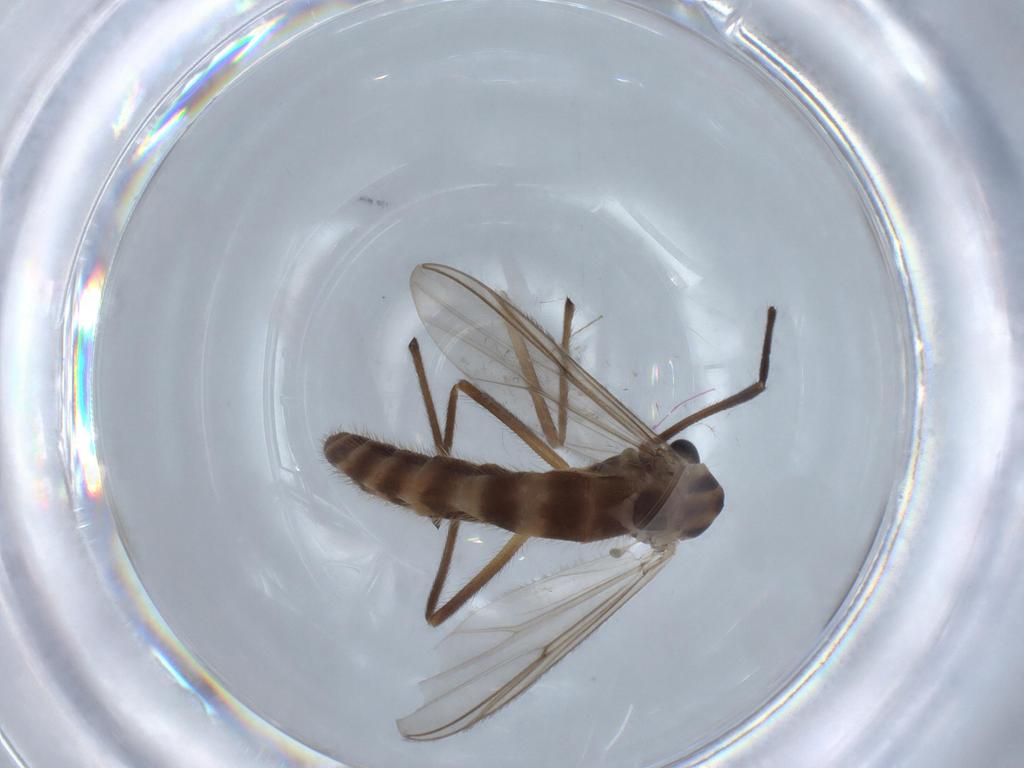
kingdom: Animalia
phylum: Arthropoda
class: Insecta
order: Diptera
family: Chironomidae
